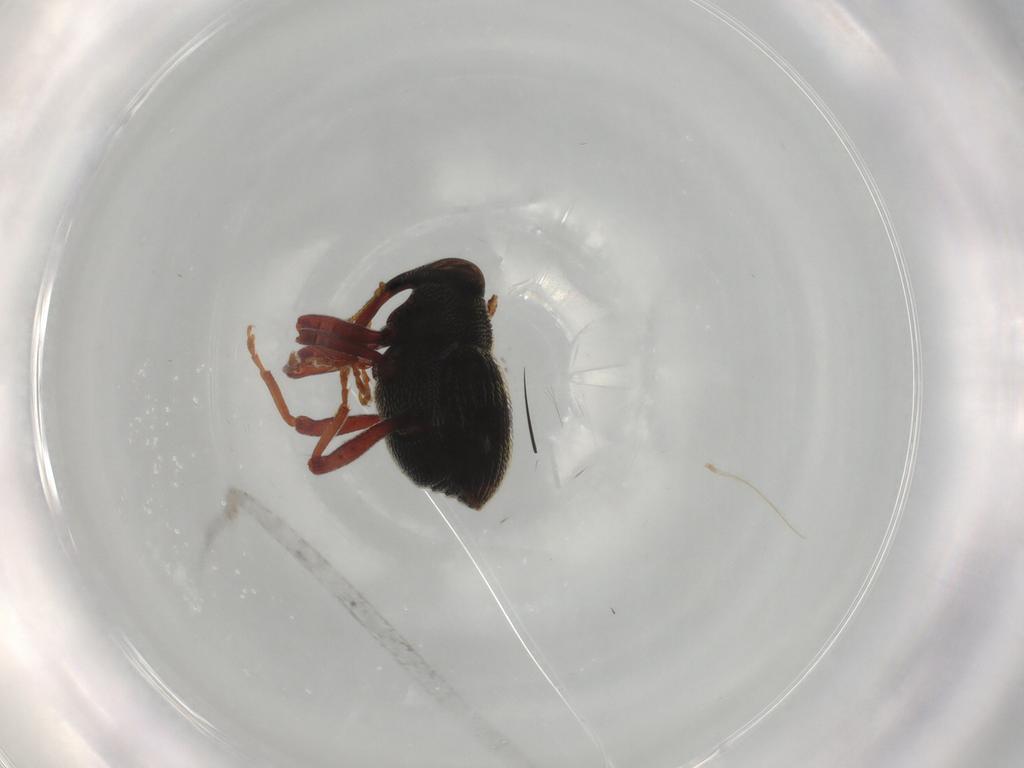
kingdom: Animalia
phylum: Arthropoda
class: Insecta
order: Coleoptera
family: Curculionidae
